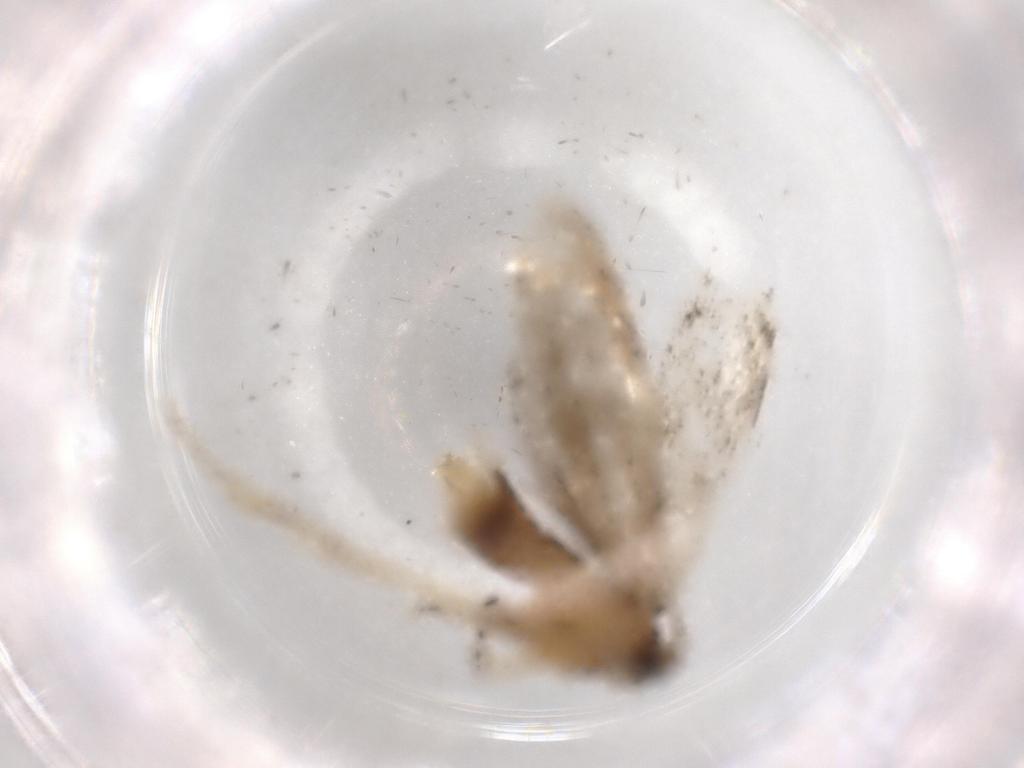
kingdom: Animalia
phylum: Arthropoda
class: Insecta
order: Lepidoptera
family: Tineidae
